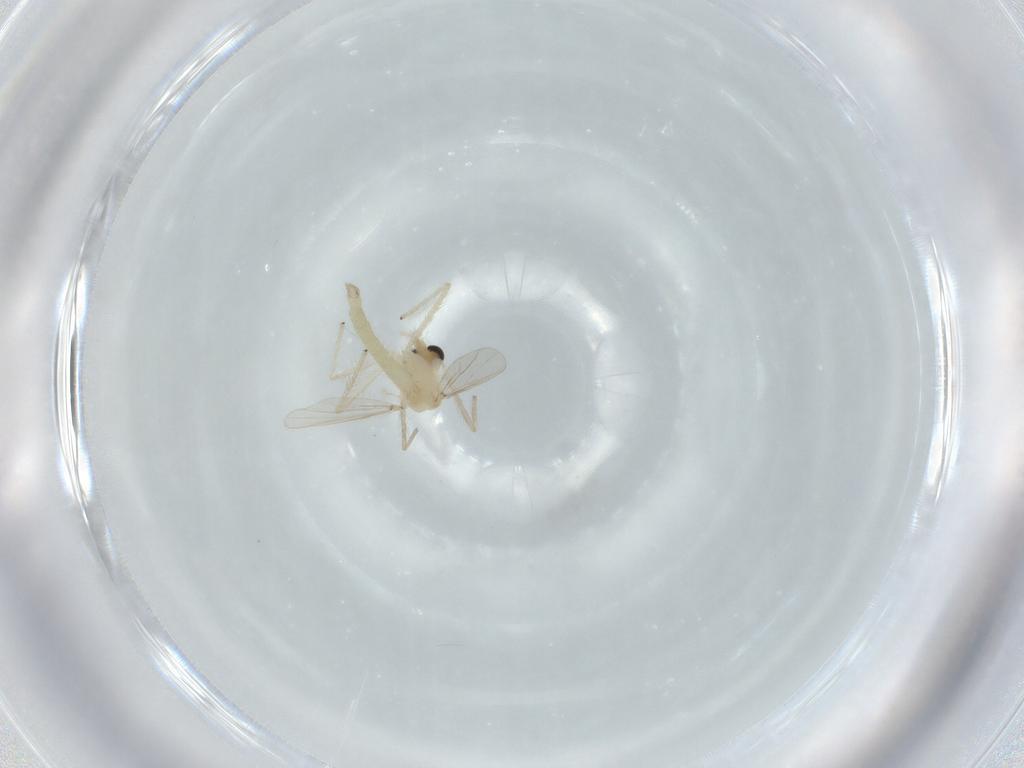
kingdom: Animalia
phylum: Arthropoda
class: Insecta
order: Diptera
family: Chironomidae
